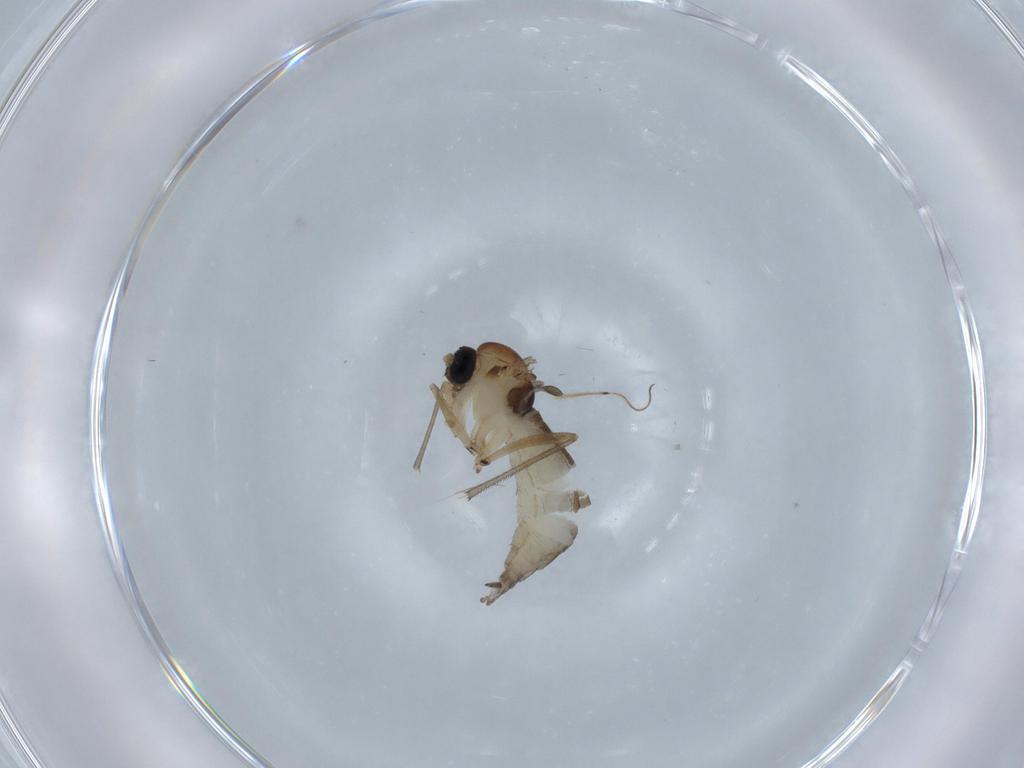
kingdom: Animalia
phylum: Arthropoda
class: Insecta
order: Diptera
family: Sciaridae
